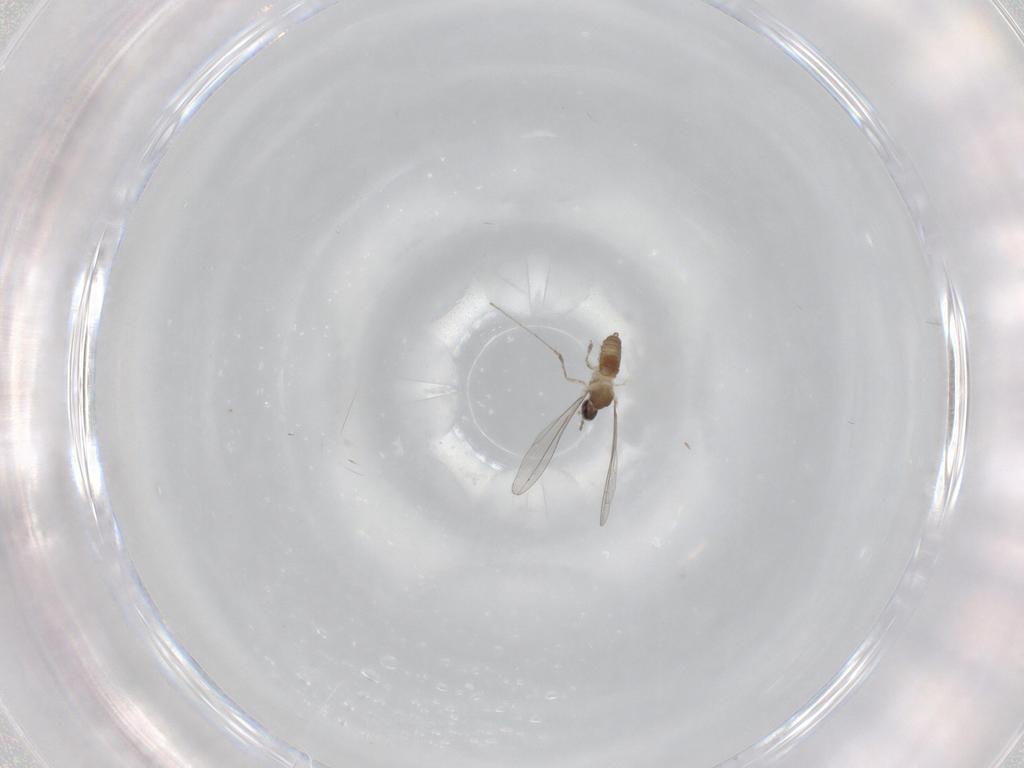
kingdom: Animalia
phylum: Arthropoda
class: Insecta
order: Diptera
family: Cecidomyiidae
